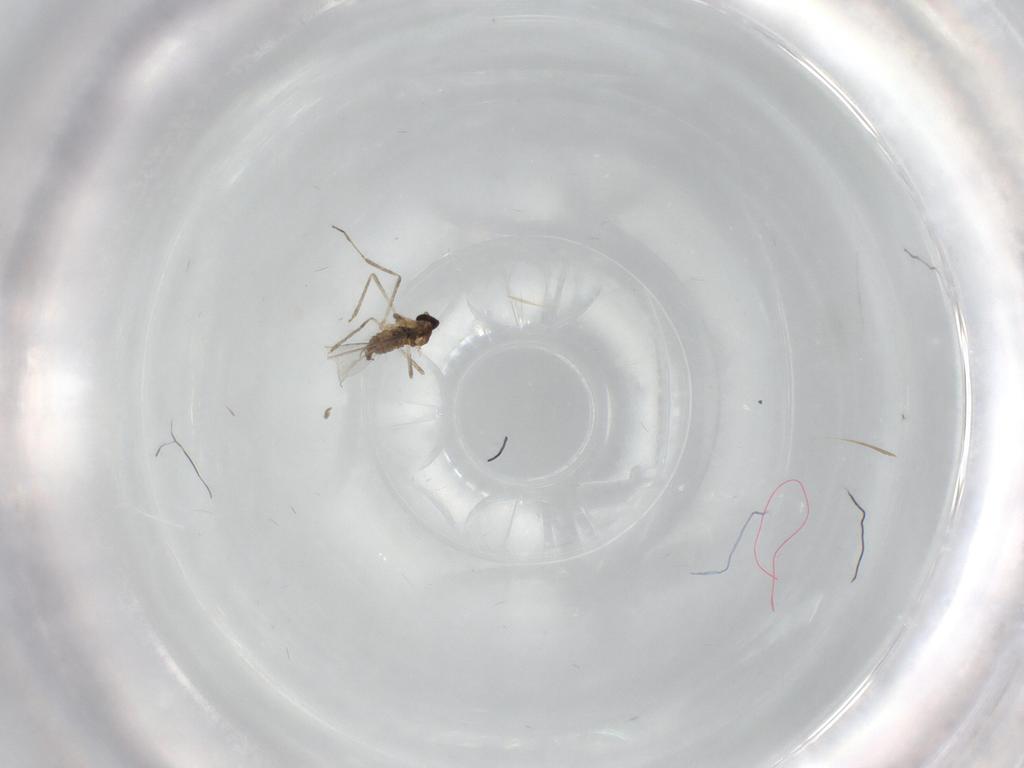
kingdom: Animalia
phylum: Arthropoda
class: Insecta
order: Diptera
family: Cecidomyiidae
